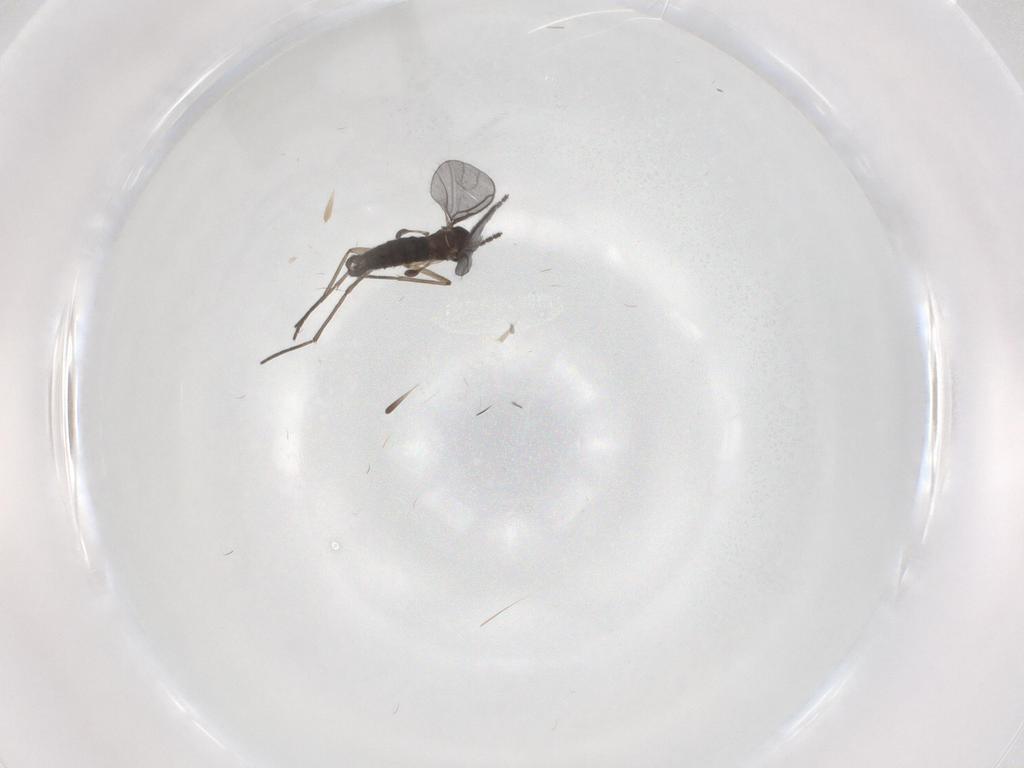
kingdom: Animalia
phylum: Arthropoda
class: Insecta
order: Diptera
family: Sciaridae
